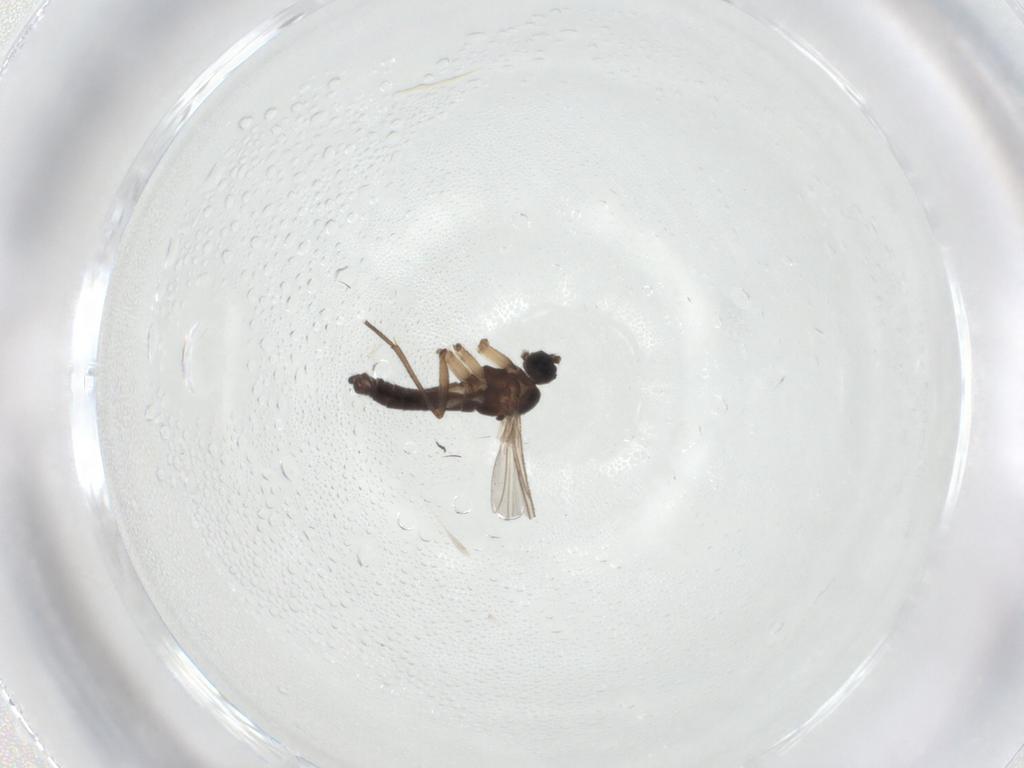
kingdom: Animalia
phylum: Arthropoda
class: Insecta
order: Diptera
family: Sciaridae
